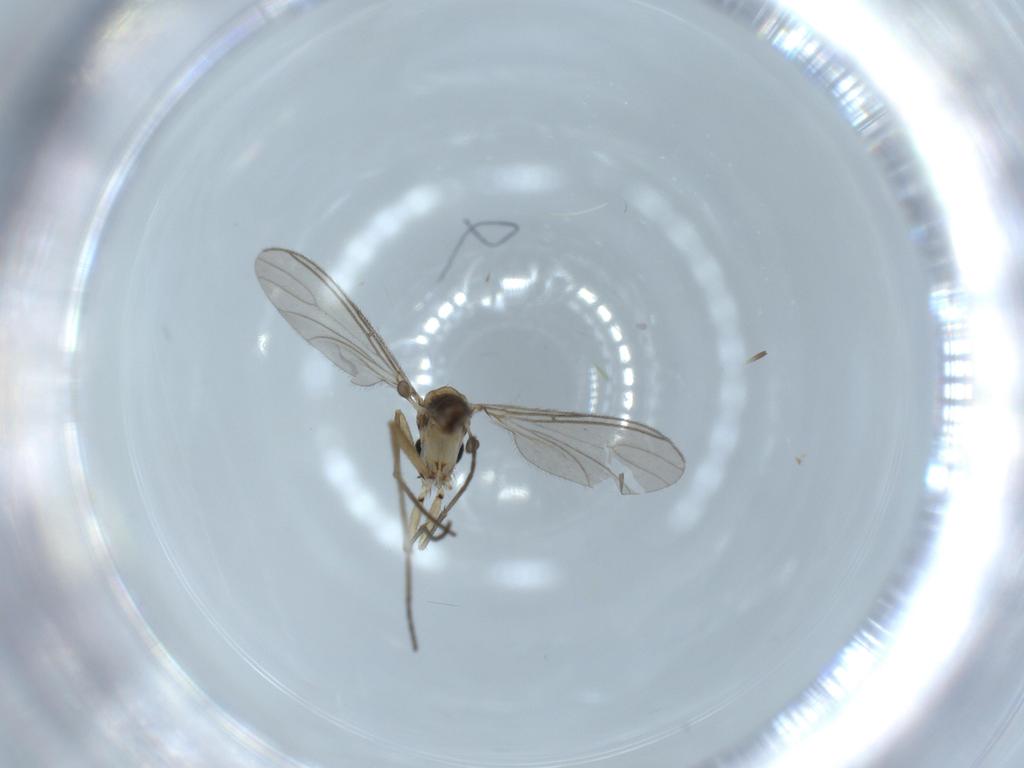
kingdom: Animalia
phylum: Arthropoda
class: Insecta
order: Diptera
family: Sciaridae
